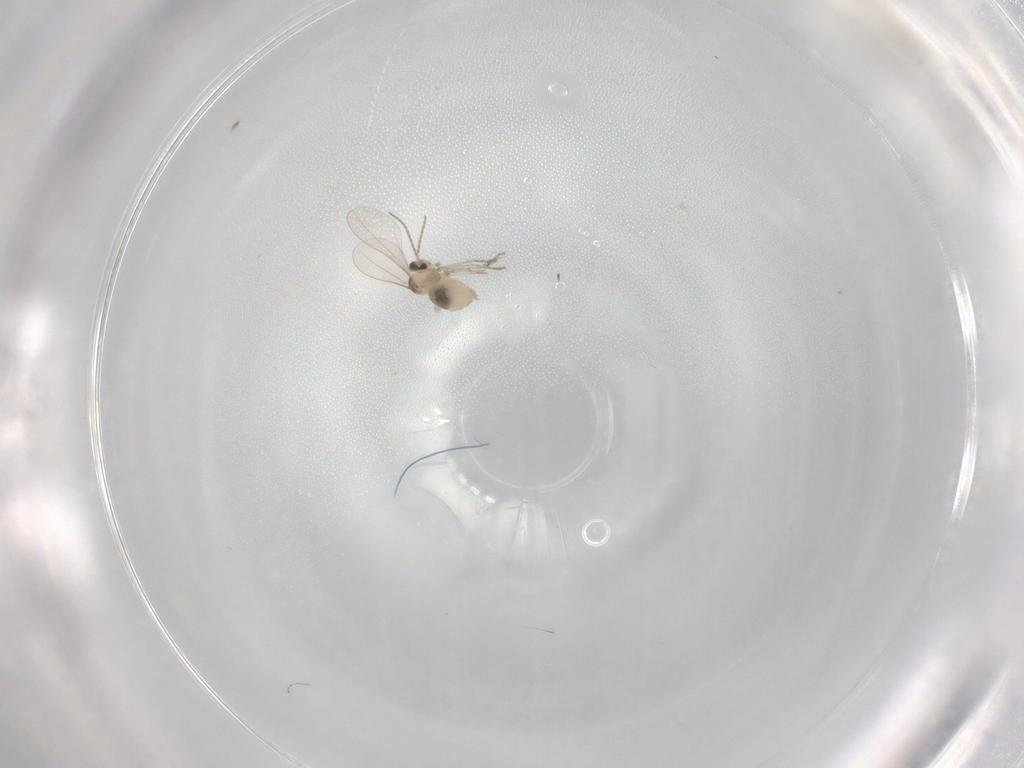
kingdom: Animalia
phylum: Arthropoda
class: Insecta
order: Diptera
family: Cecidomyiidae
